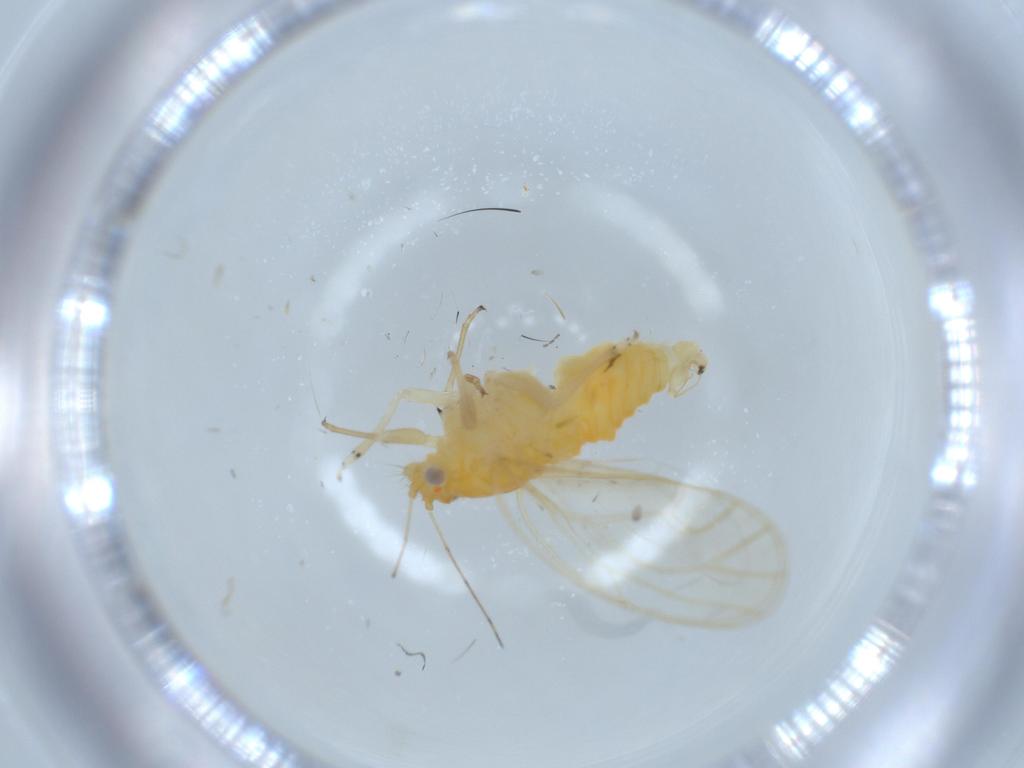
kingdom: Animalia
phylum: Arthropoda
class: Insecta
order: Hemiptera
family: Psyllidae
